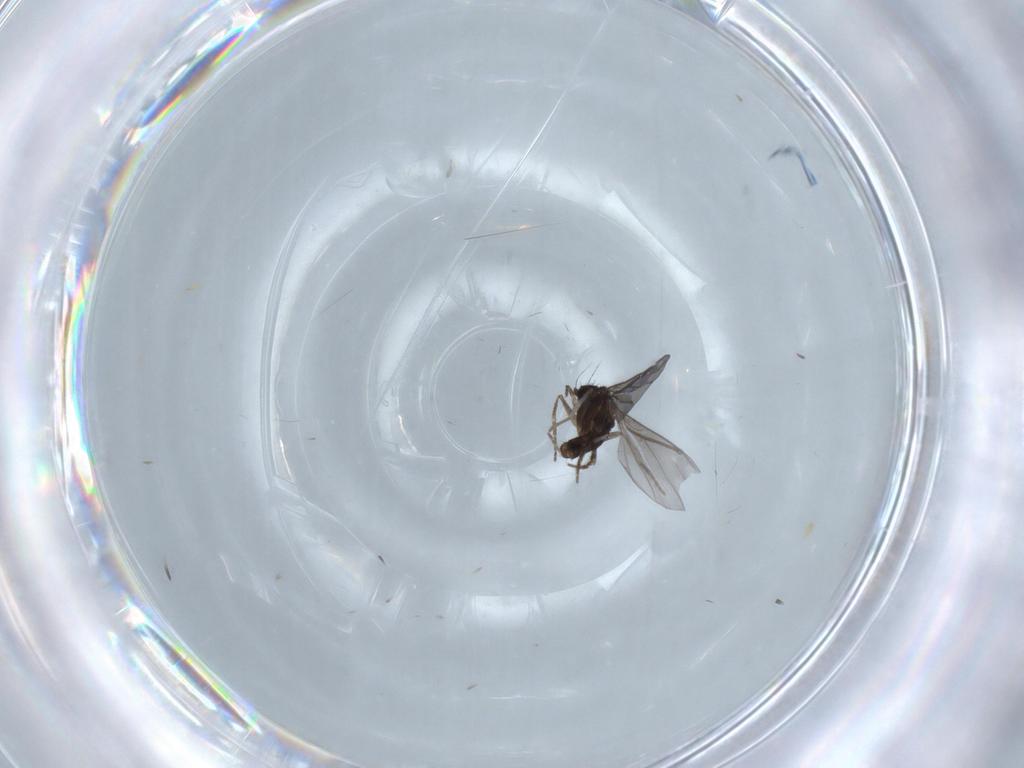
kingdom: Animalia
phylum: Arthropoda
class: Insecta
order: Diptera
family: Phoridae
